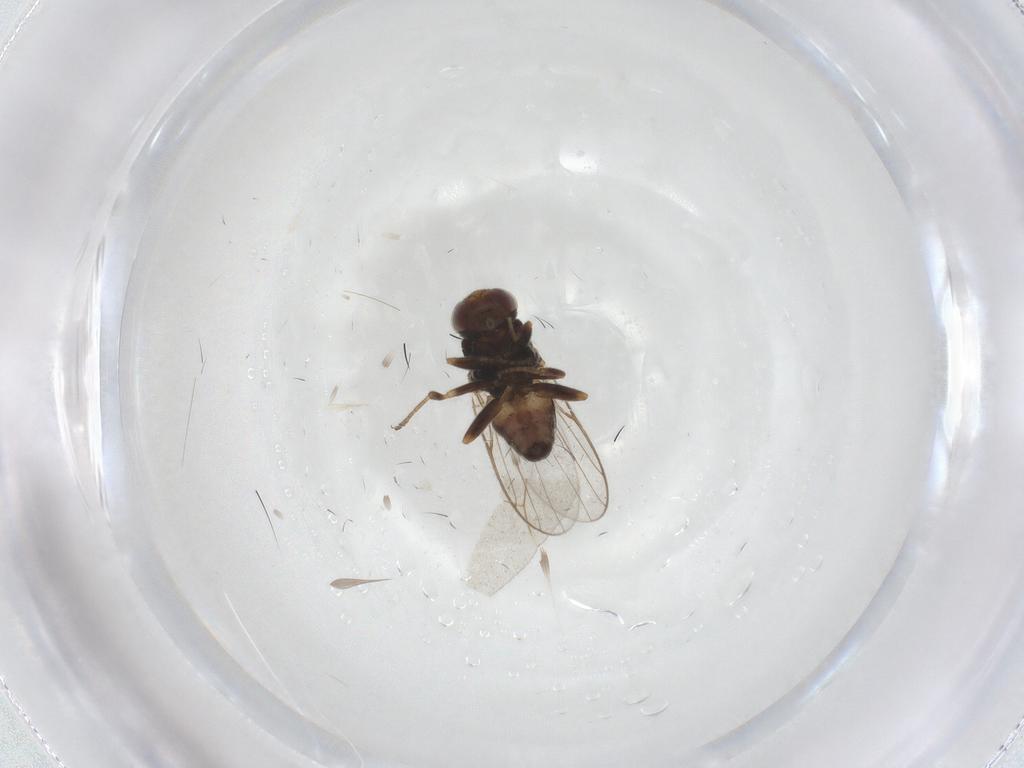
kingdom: Animalia
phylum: Arthropoda
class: Insecta
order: Diptera
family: Chloropidae
